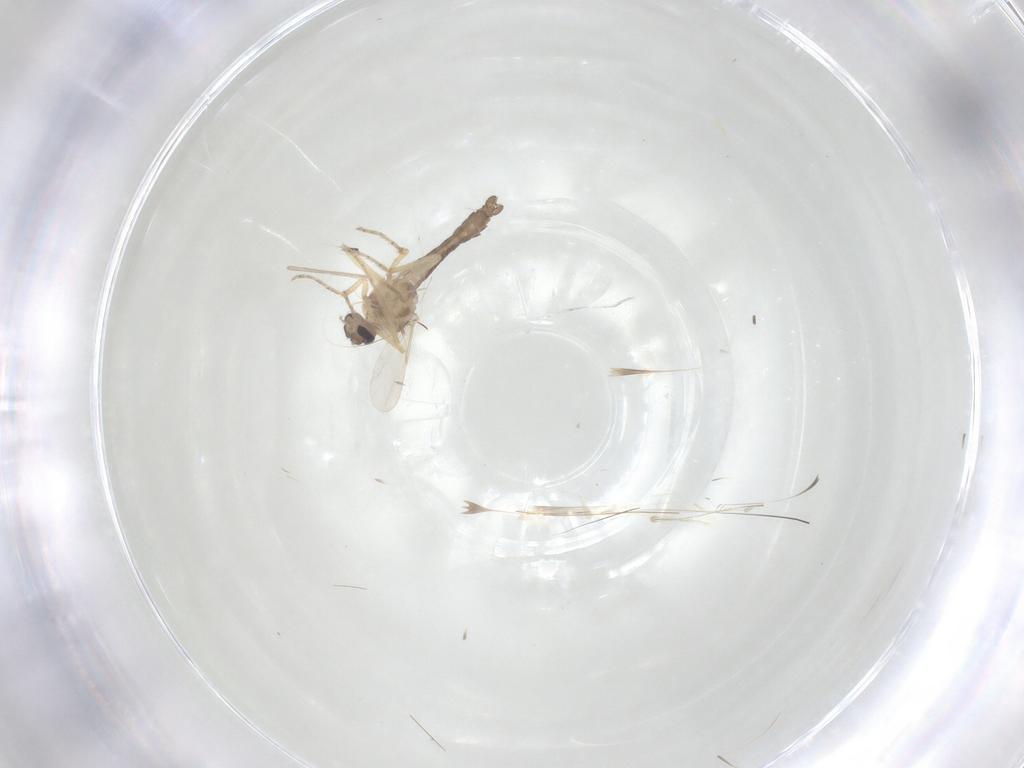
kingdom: Animalia
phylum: Arthropoda
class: Insecta
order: Diptera
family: Ceratopogonidae
